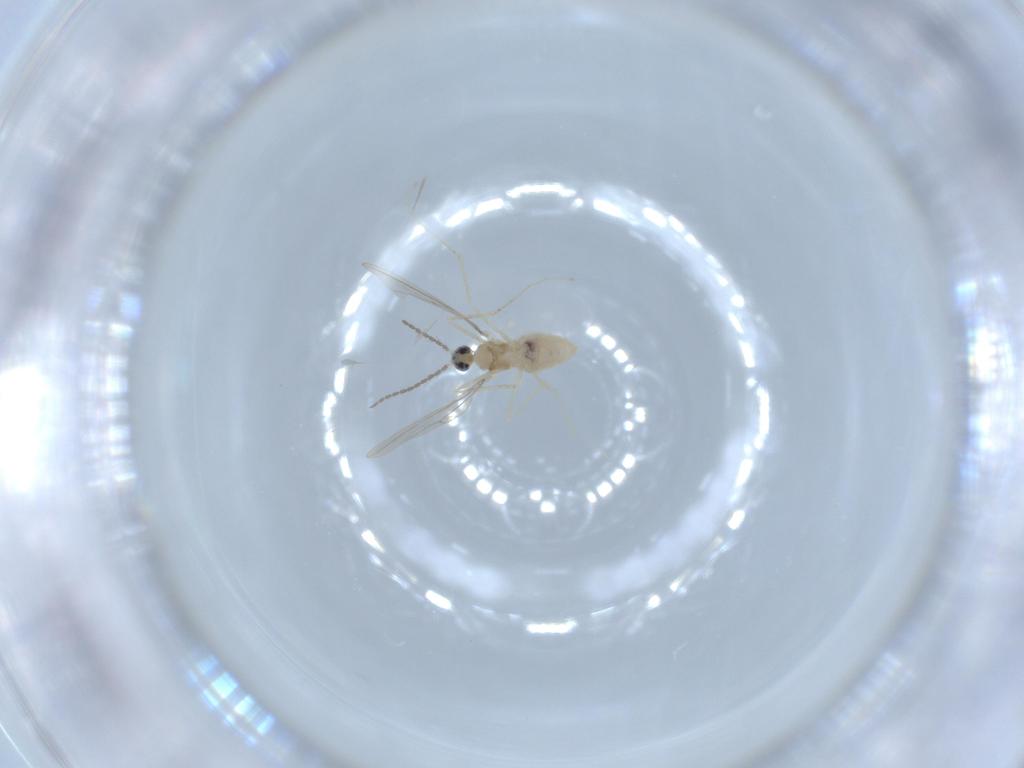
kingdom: Animalia
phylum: Arthropoda
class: Insecta
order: Diptera
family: Cecidomyiidae
